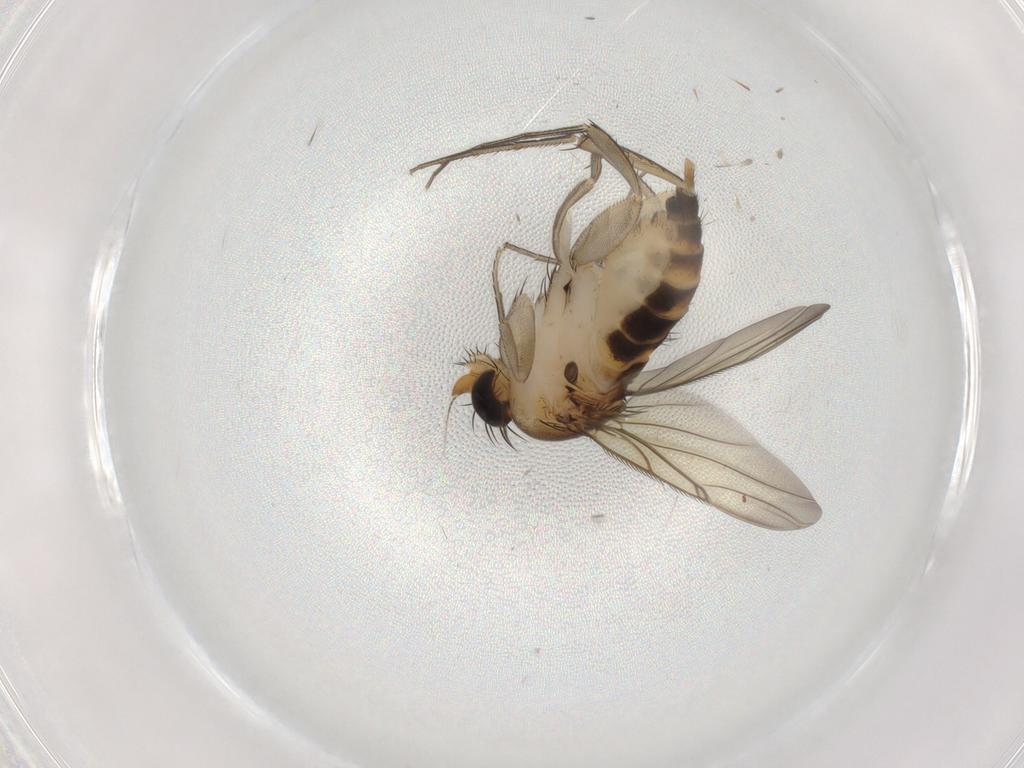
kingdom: Animalia
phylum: Arthropoda
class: Insecta
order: Diptera
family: Phoridae
